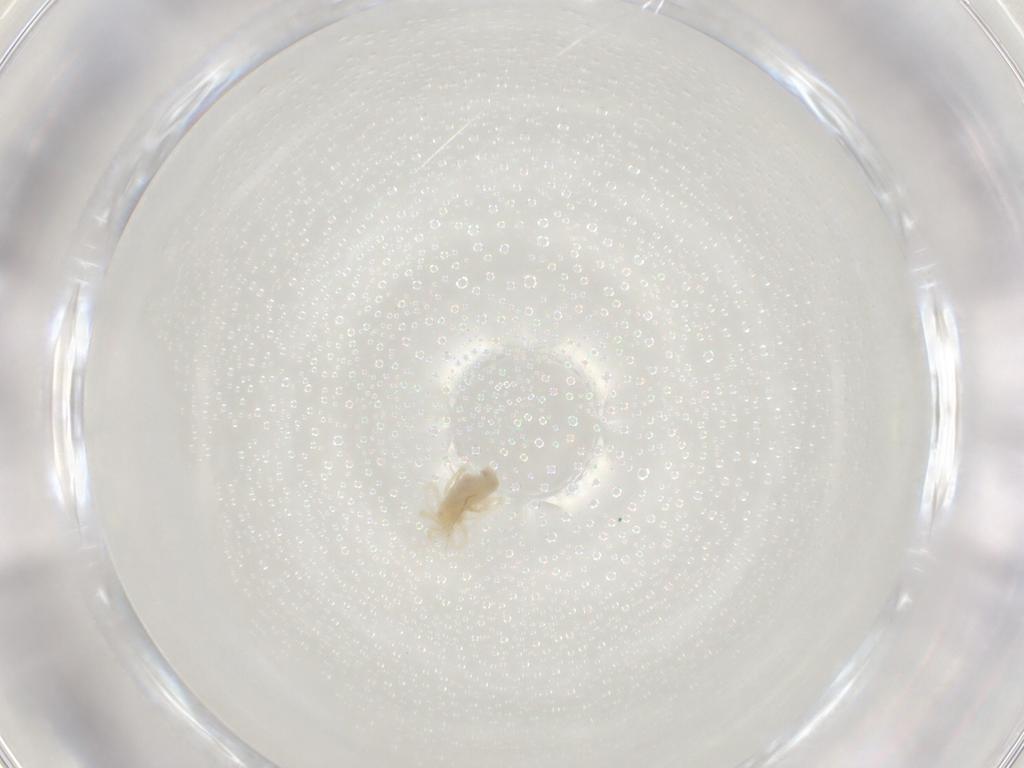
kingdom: Animalia
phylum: Arthropoda
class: Arachnida
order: Trombidiformes
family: Anystidae
